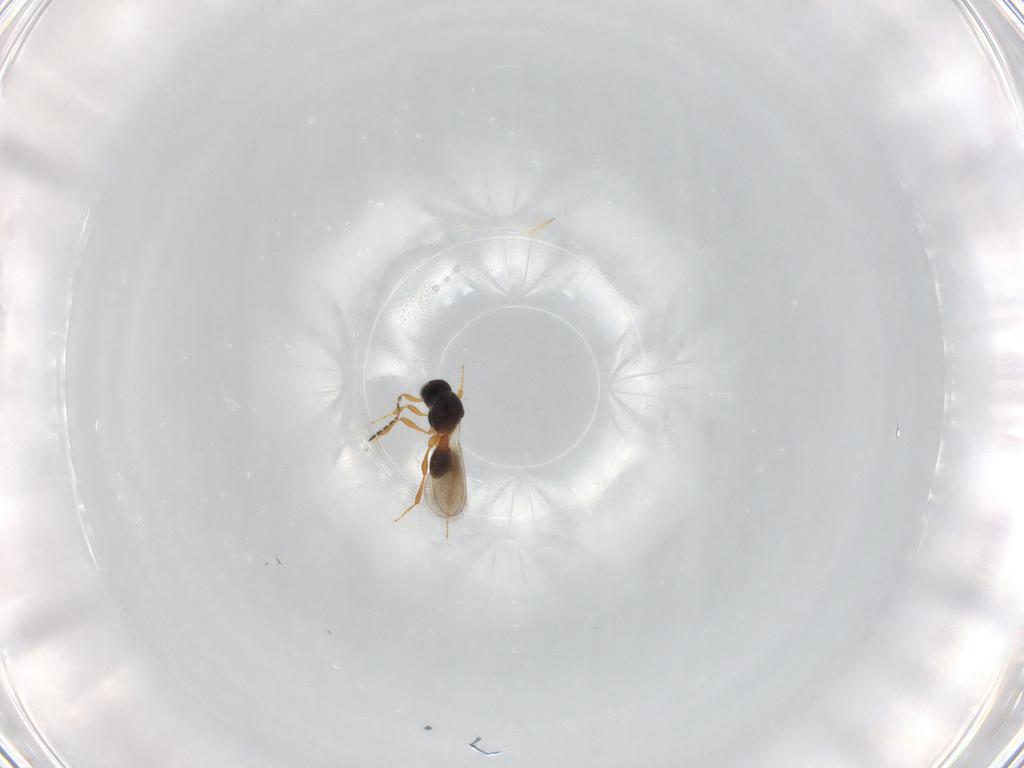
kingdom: Animalia
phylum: Arthropoda
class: Insecta
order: Hymenoptera
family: Platygastridae
